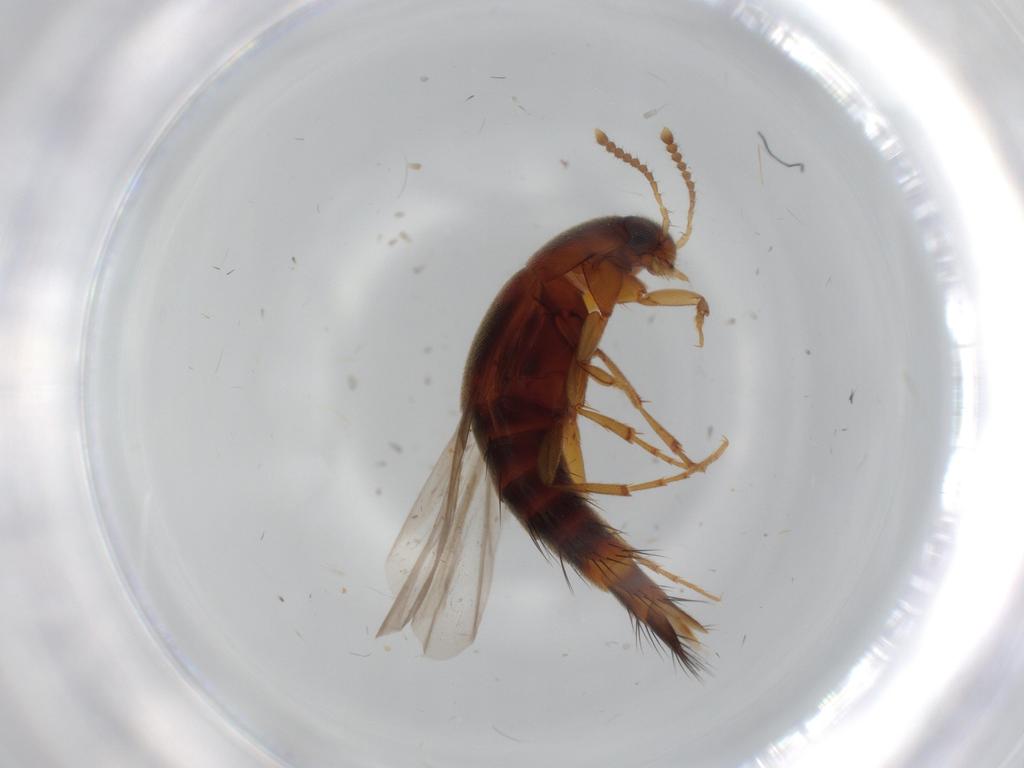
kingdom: Animalia
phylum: Arthropoda
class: Insecta
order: Coleoptera
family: Staphylinidae
